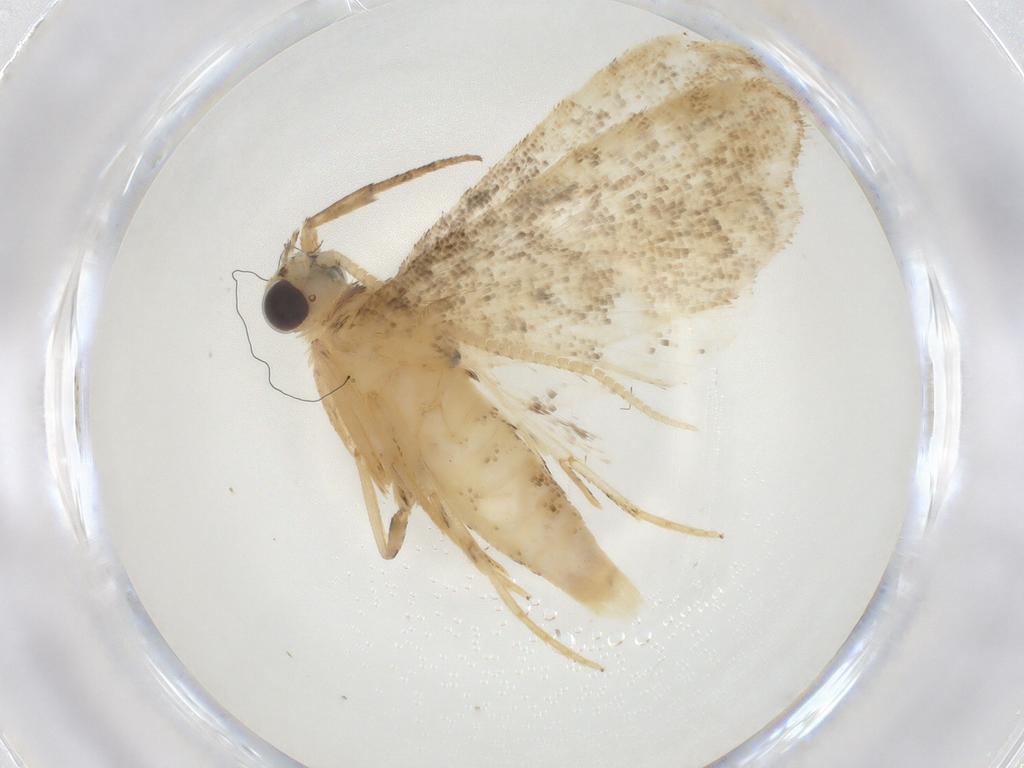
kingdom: Animalia
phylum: Arthropoda
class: Insecta
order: Lepidoptera
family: Crambidae
